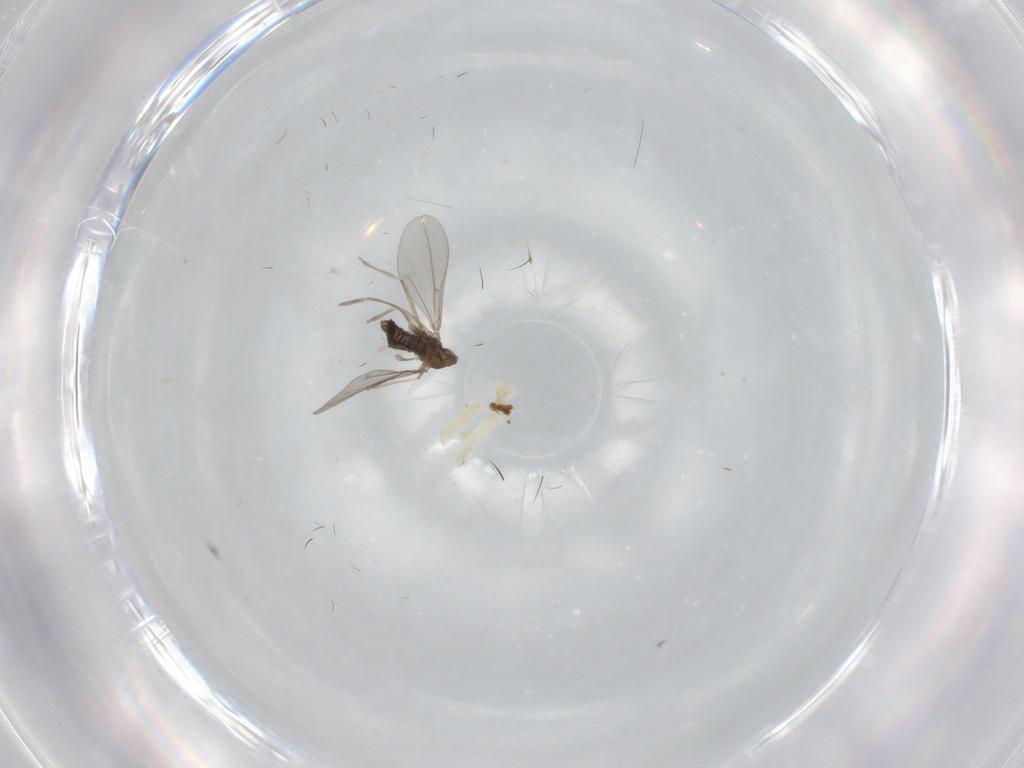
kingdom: Animalia
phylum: Arthropoda
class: Insecta
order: Diptera
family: Cecidomyiidae
